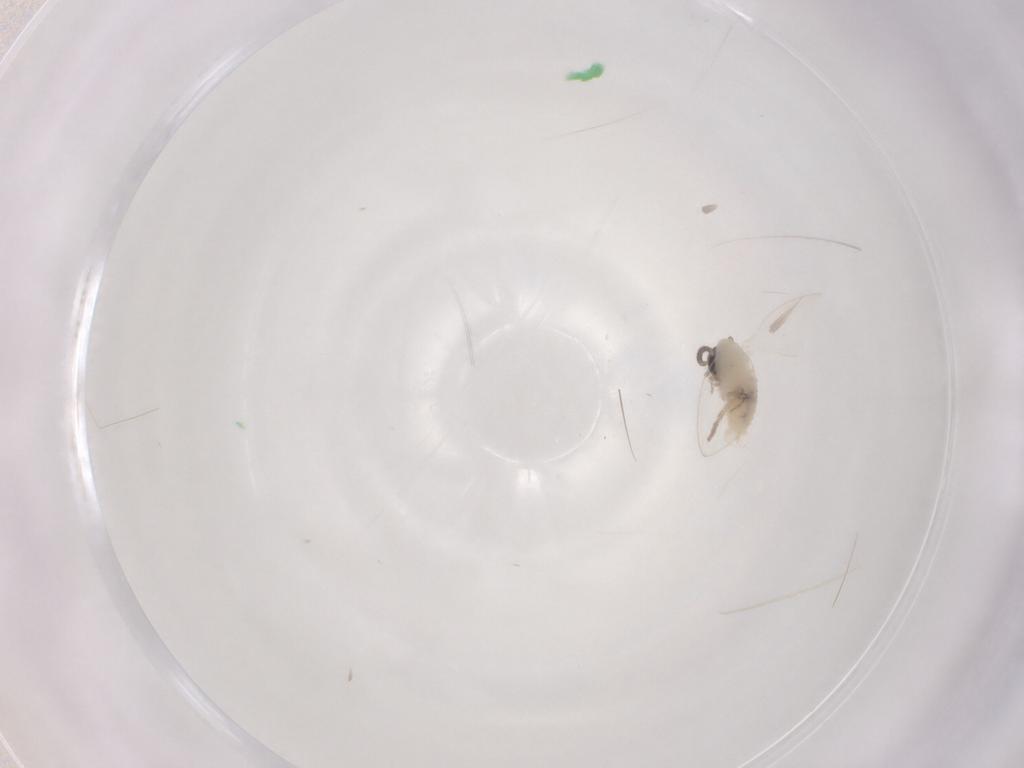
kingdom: Animalia
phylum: Arthropoda
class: Insecta
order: Diptera
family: Psychodidae
